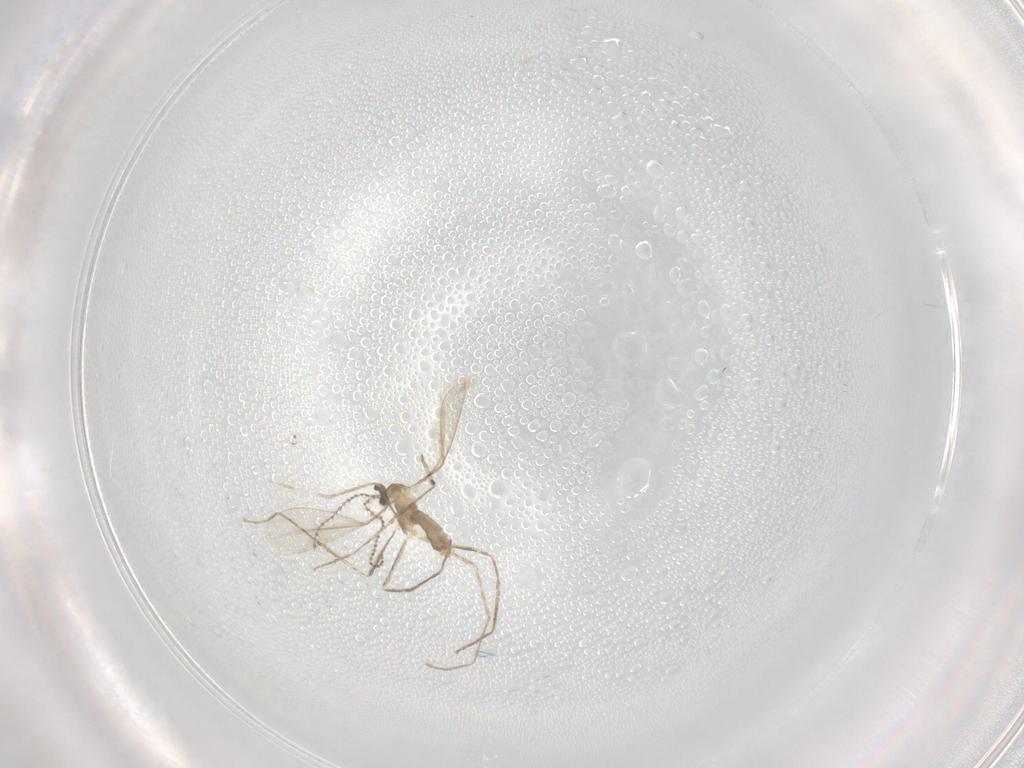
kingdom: Animalia
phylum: Arthropoda
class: Insecta
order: Diptera
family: Cecidomyiidae
